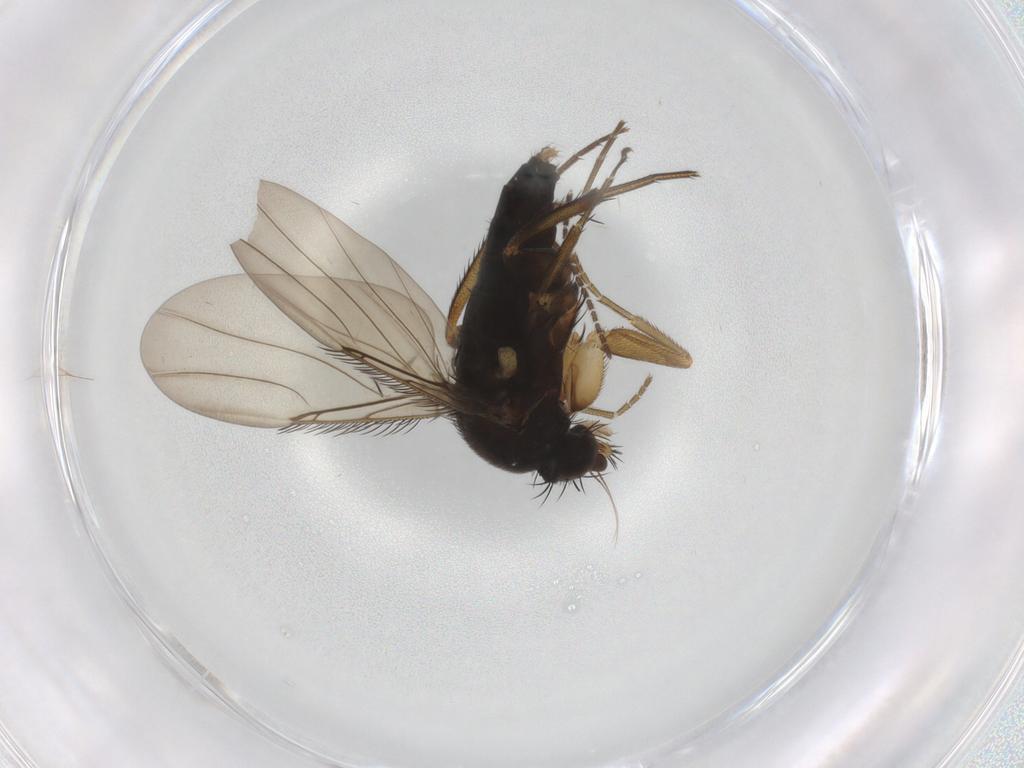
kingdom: Animalia
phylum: Arthropoda
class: Insecta
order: Diptera
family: Phoridae
